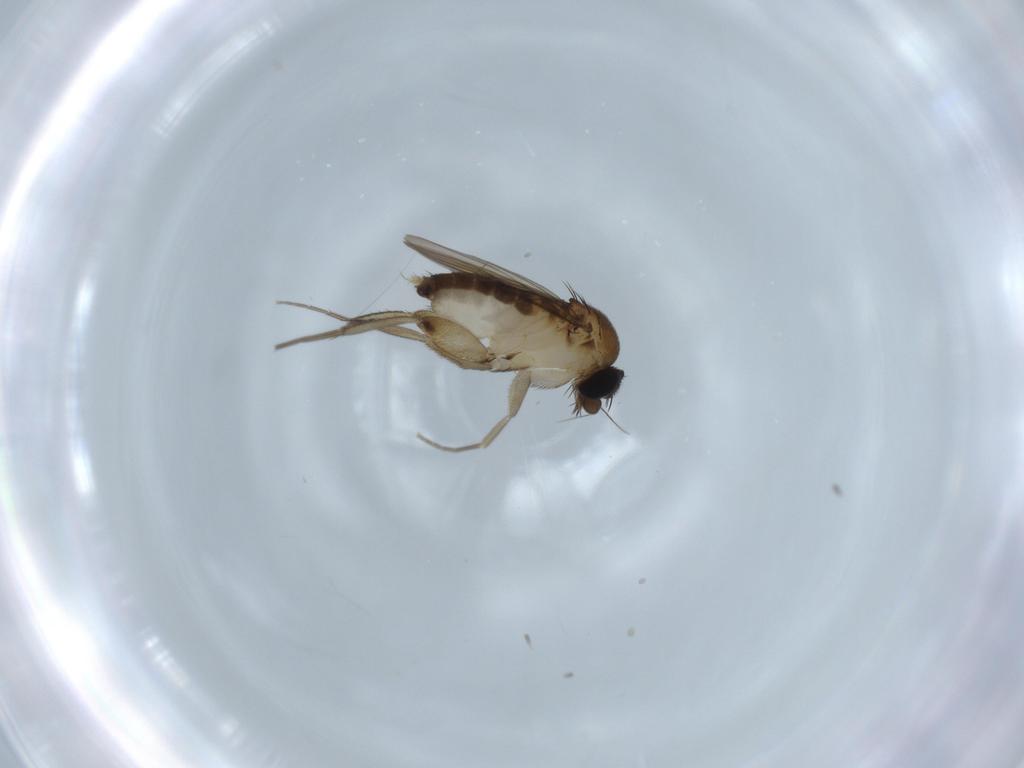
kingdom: Animalia
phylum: Arthropoda
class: Insecta
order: Diptera
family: Phoridae
